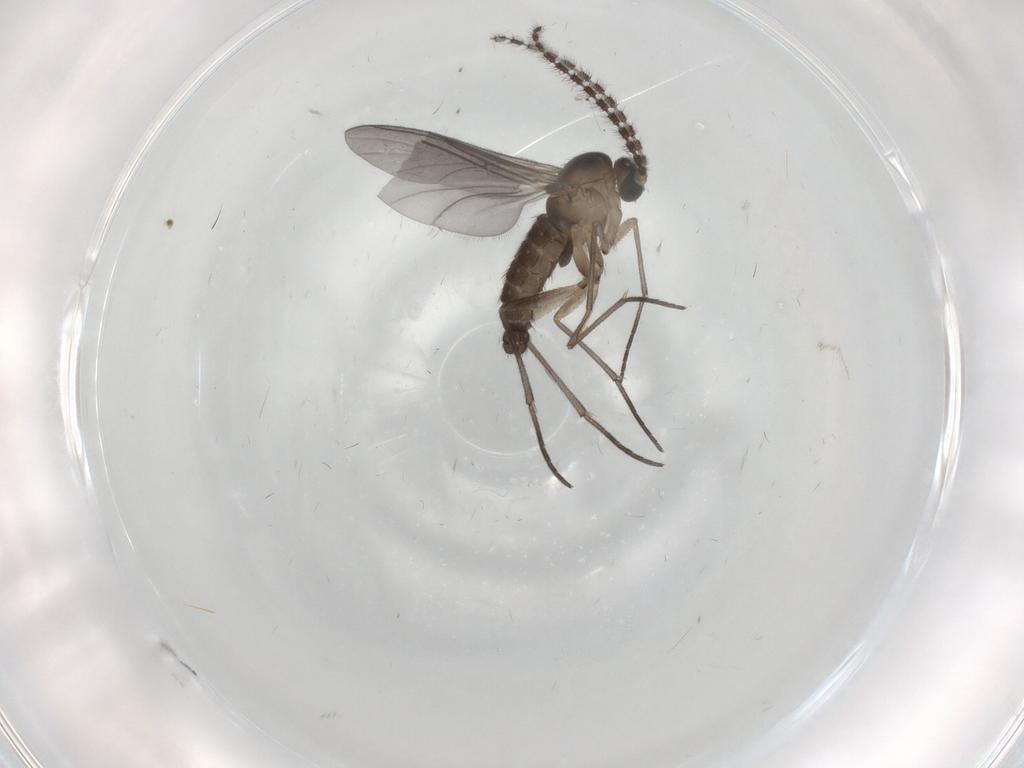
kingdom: Animalia
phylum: Arthropoda
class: Insecta
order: Diptera
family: Sciaridae
